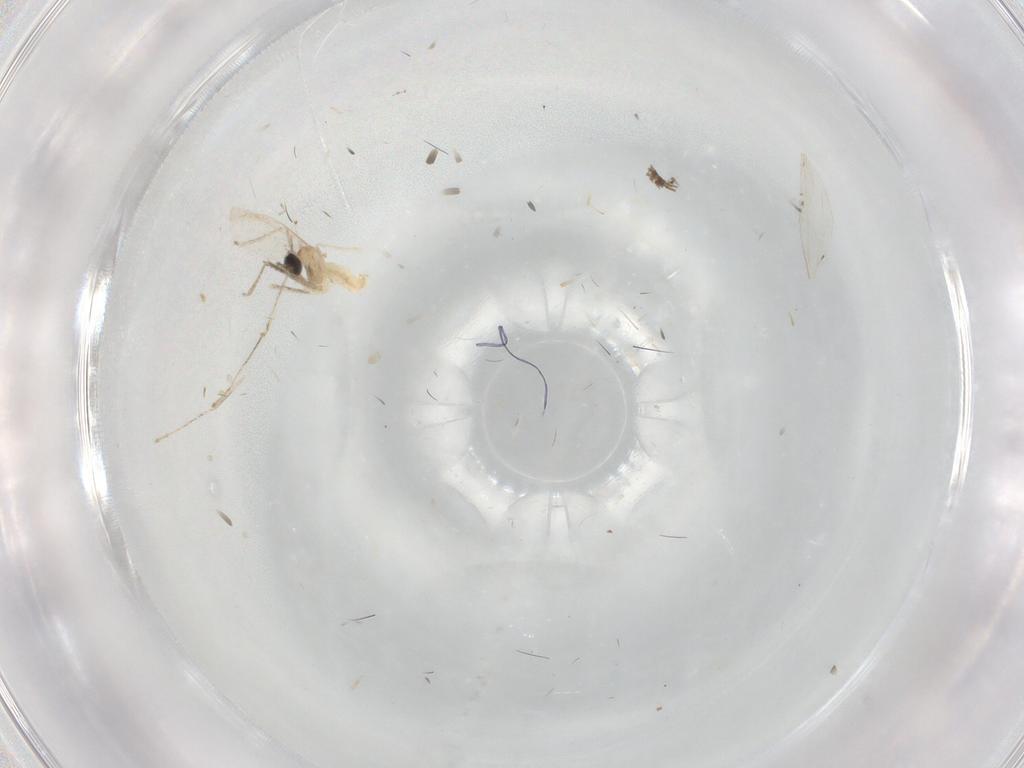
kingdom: Animalia
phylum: Arthropoda
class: Insecta
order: Diptera
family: Cecidomyiidae
